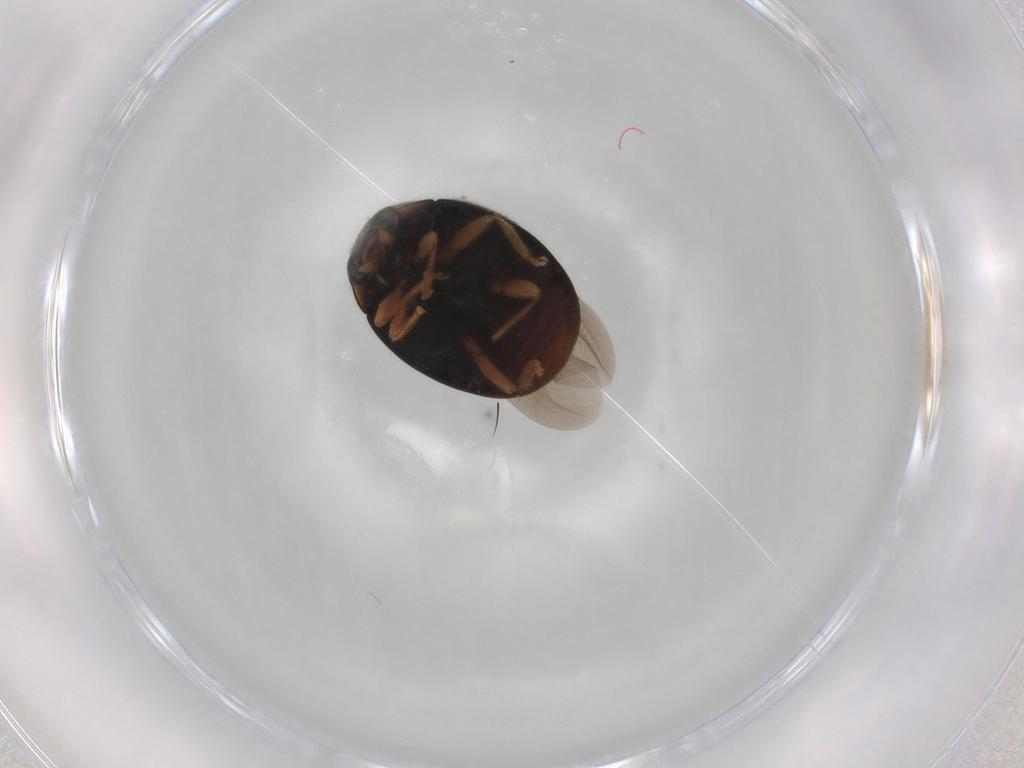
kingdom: Animalia
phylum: Arthropoda
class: Insecta
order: Coleoptera
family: Coccinellidae
